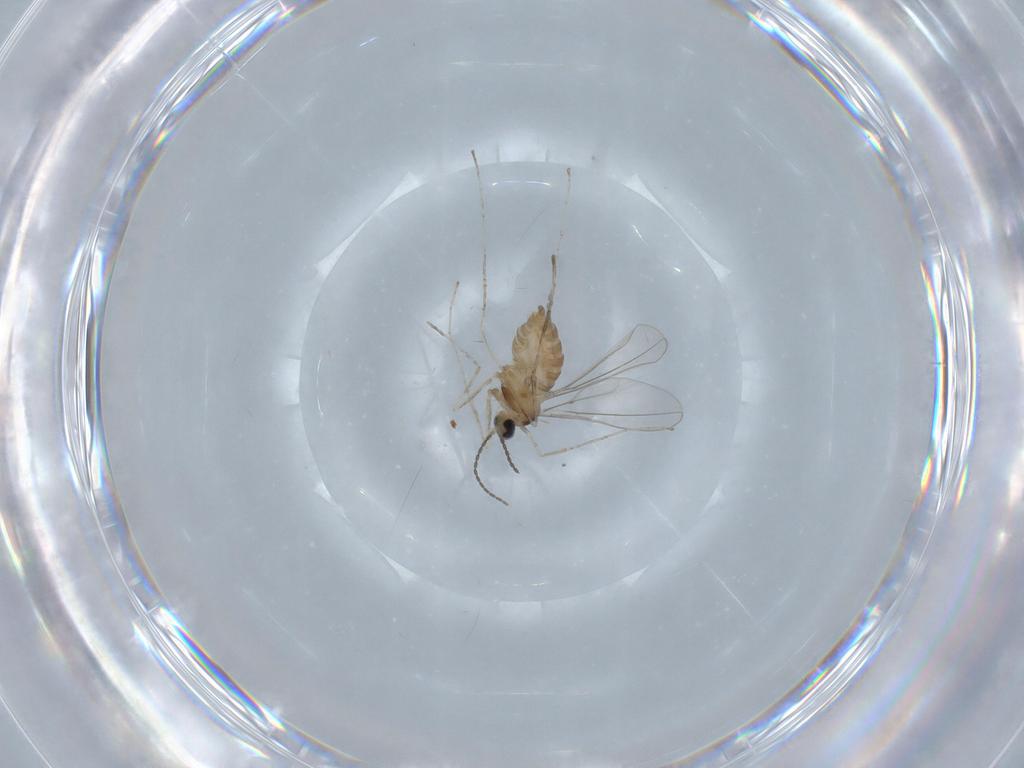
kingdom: Animalia
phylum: Arthropoda
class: Insecta
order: Diptera
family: Cecidomyiidae
